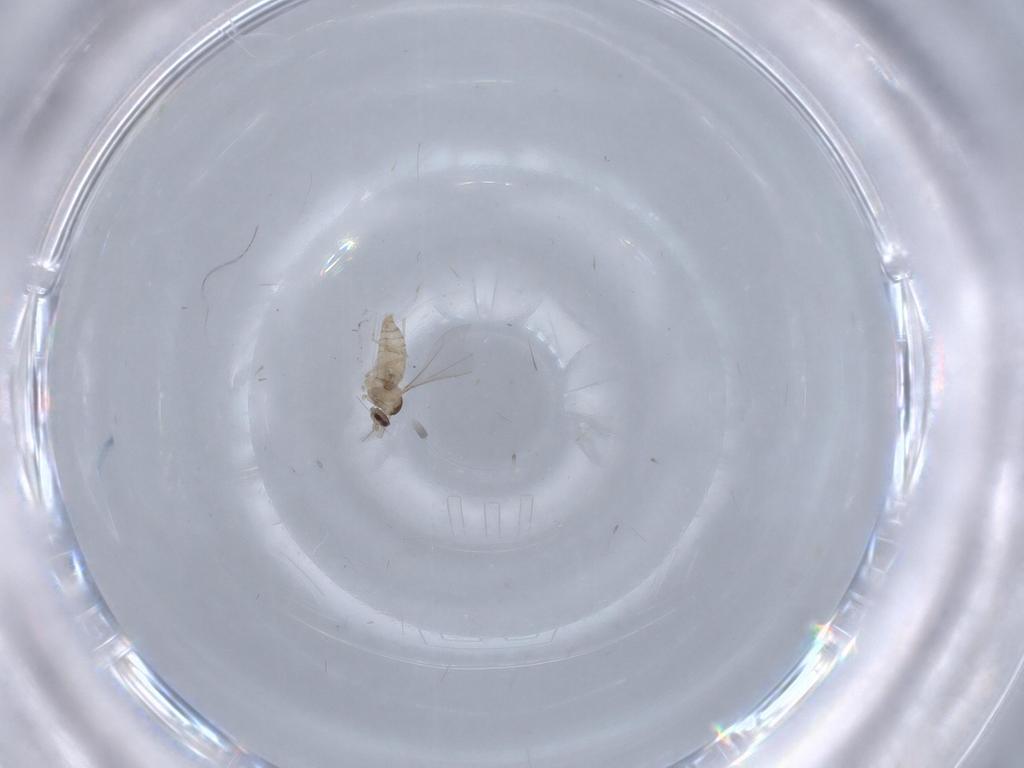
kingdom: Animalia
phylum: Arthropoda
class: Insecta
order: Diptera
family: Cecidomyiidae
